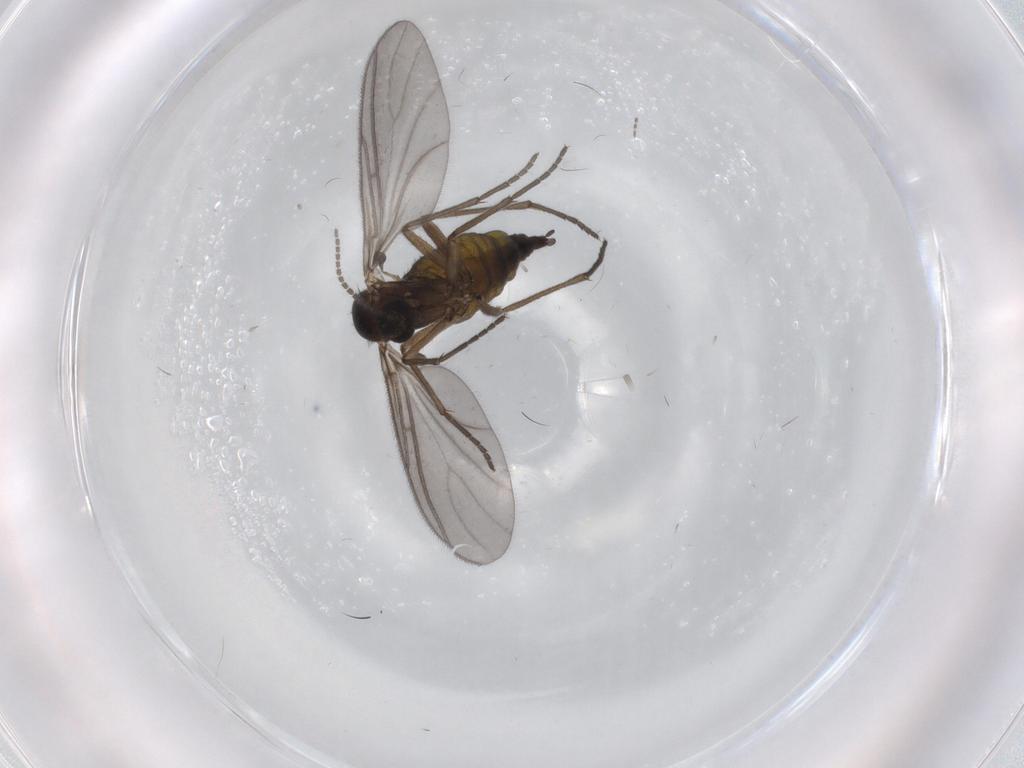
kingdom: Animalia
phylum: Arthropoda
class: Insecta
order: Diptera
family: Sciaridae
